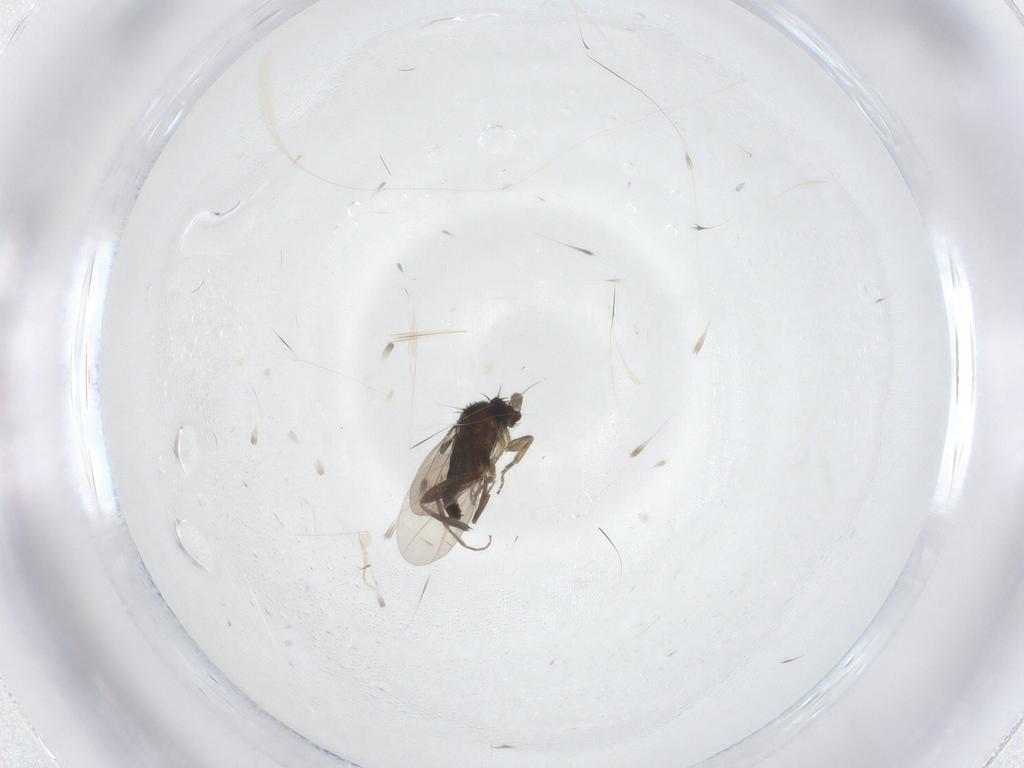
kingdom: Animalia
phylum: Arthropoda
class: Insecta
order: Diptera
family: Phoridae
